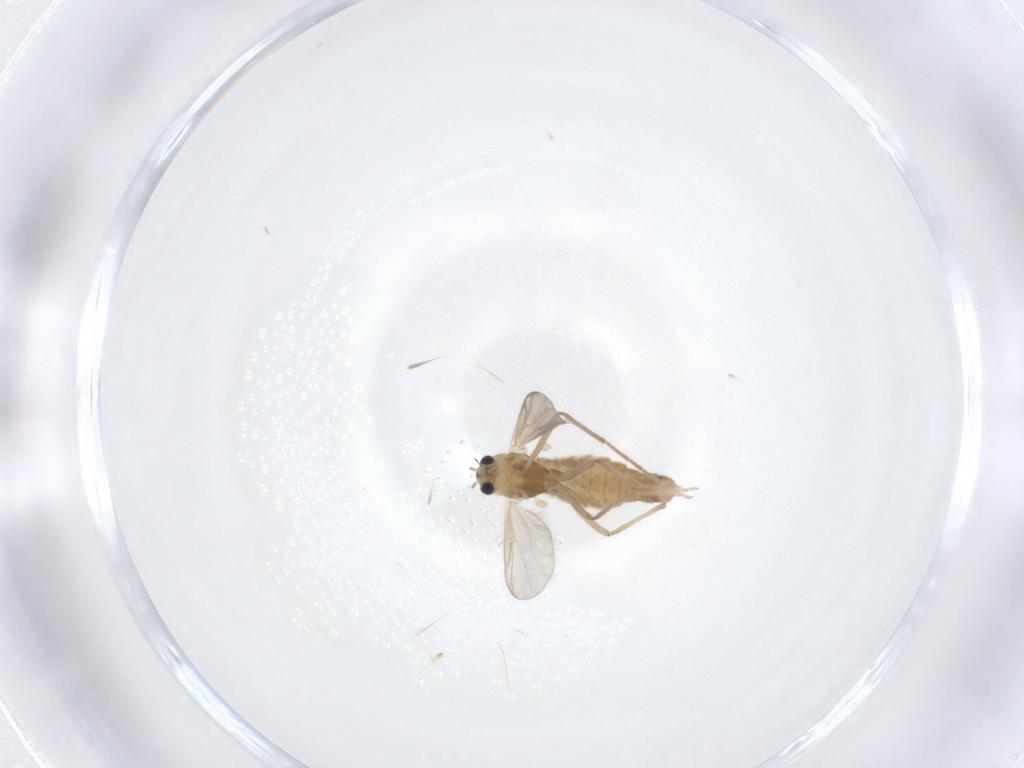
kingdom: Animalia
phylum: Arthropoda
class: Insecta
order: Diptera
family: Chironomidae
